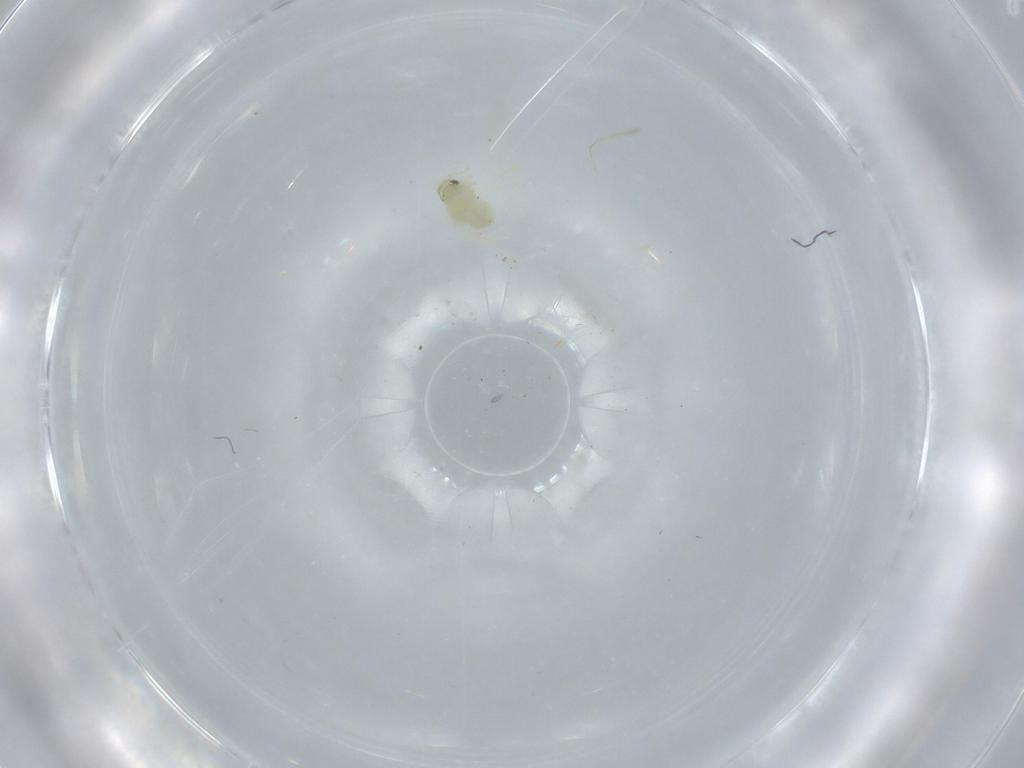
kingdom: Animalia
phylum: Arthropoda
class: Insecta
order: Hemiptera
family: Aleyrodidae
